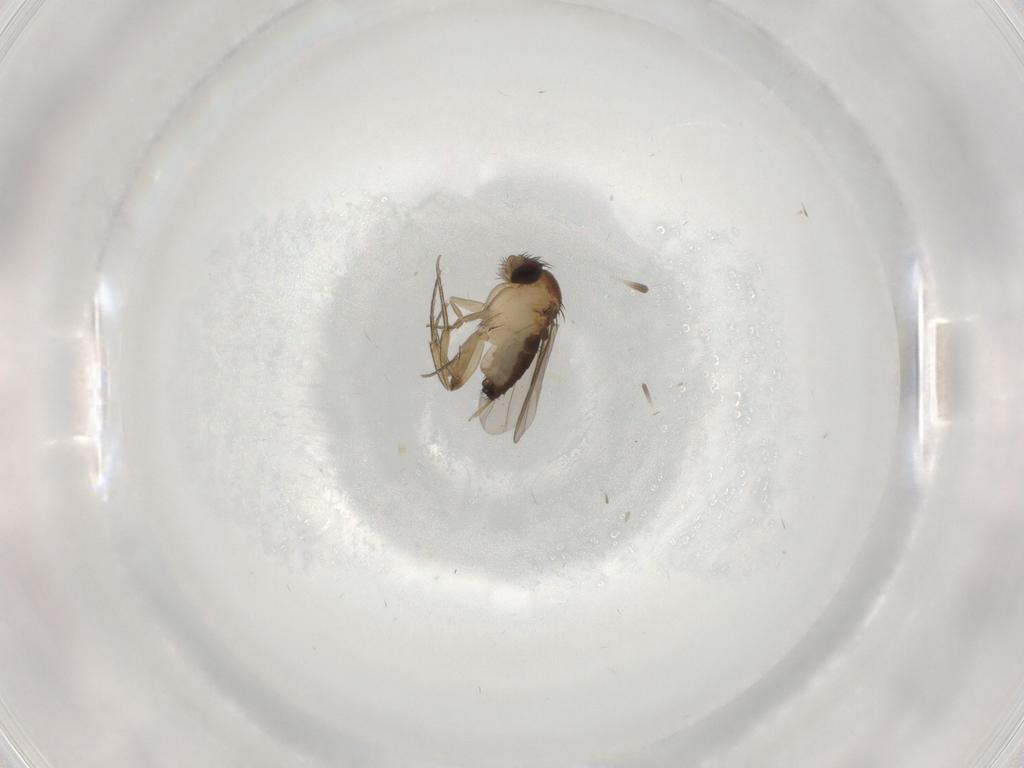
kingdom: Animalia
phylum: Arthropoda
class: Insecta
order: Diptera
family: Phoridae
